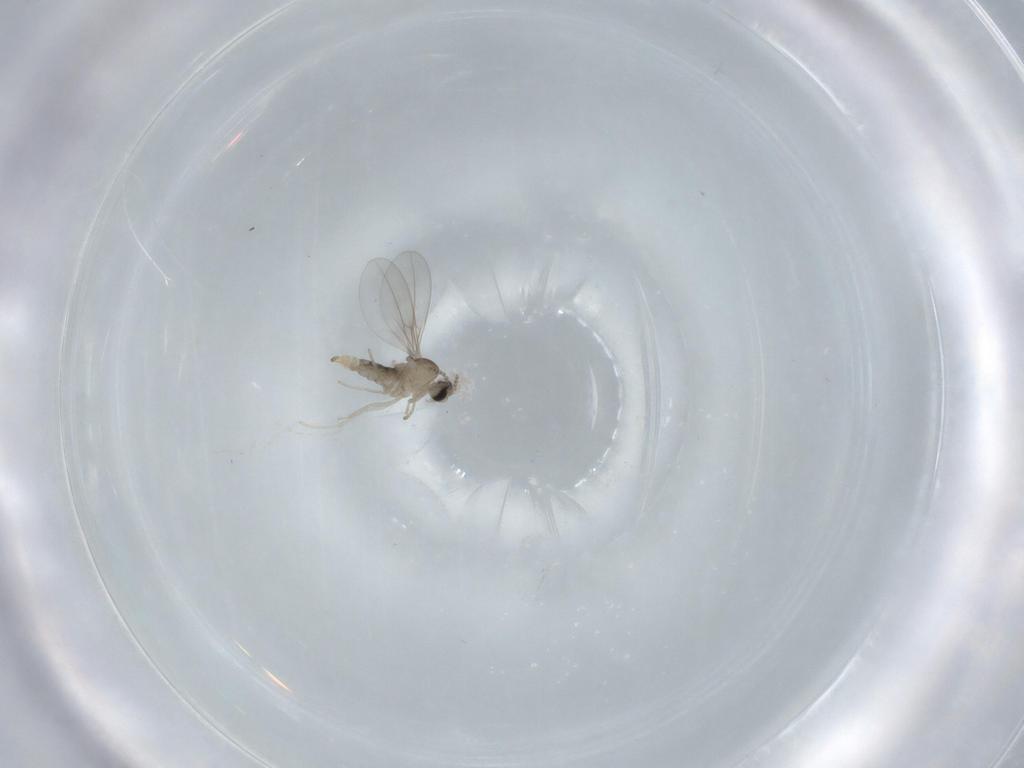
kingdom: Animalia
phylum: Arthropoda
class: Insecta
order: Diptera
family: Cecidomyiidae
